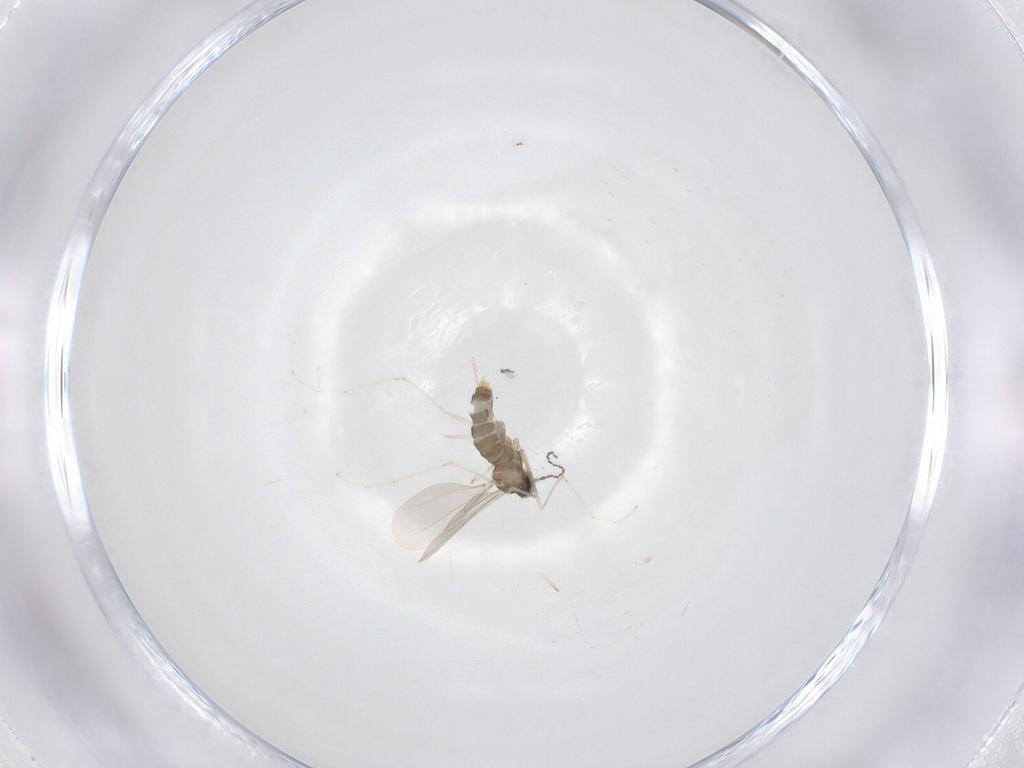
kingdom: Animalia
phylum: Arthropoda
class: Insecta
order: Diptera
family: Cecidomyiidae
